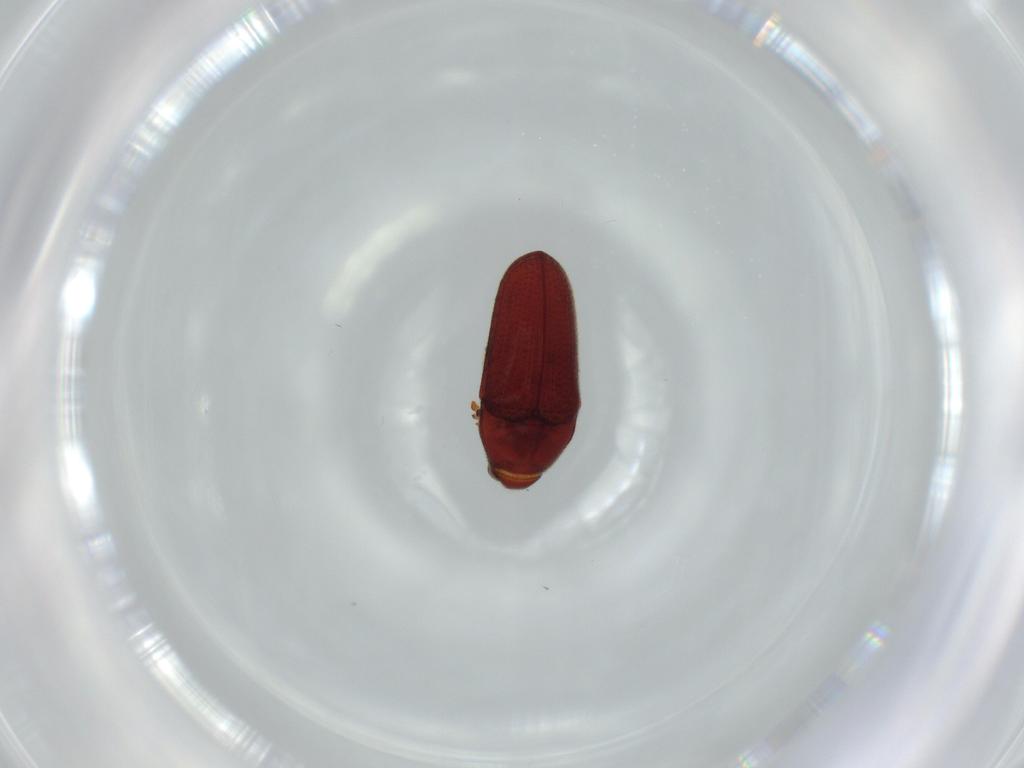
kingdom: Animalia
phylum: Arthropoda
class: Insecta
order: Coleoptera
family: Throscidae
